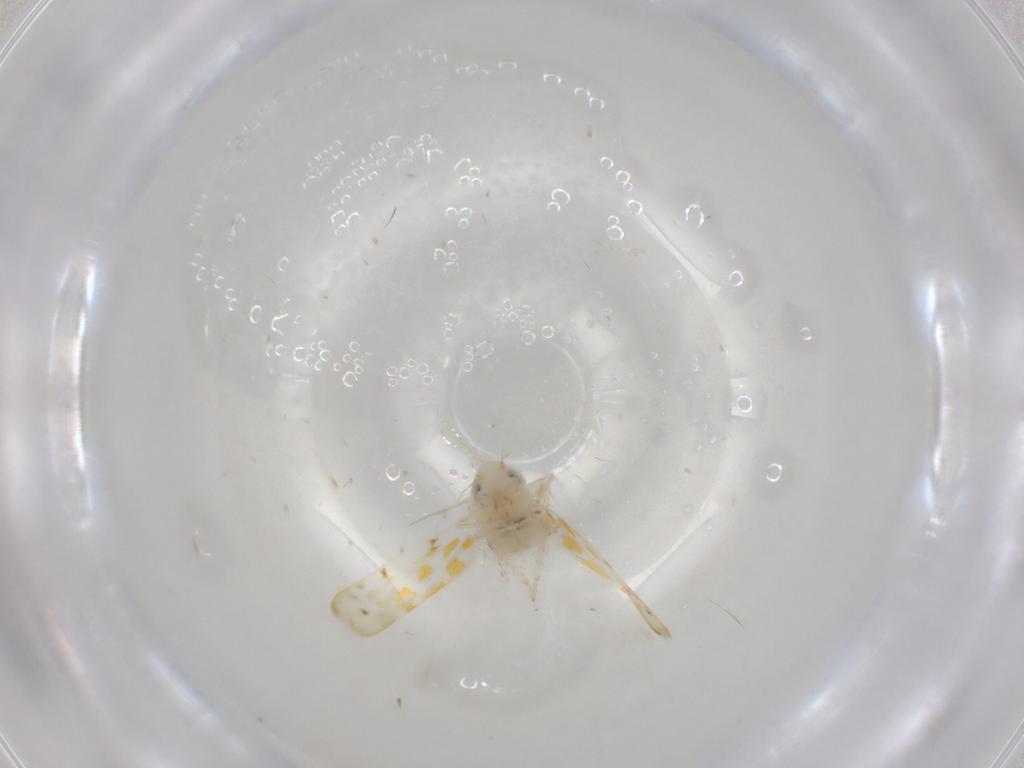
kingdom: Animalia
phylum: Arthropoda
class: Insecta
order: Hemiptera
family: Cicadellidae
